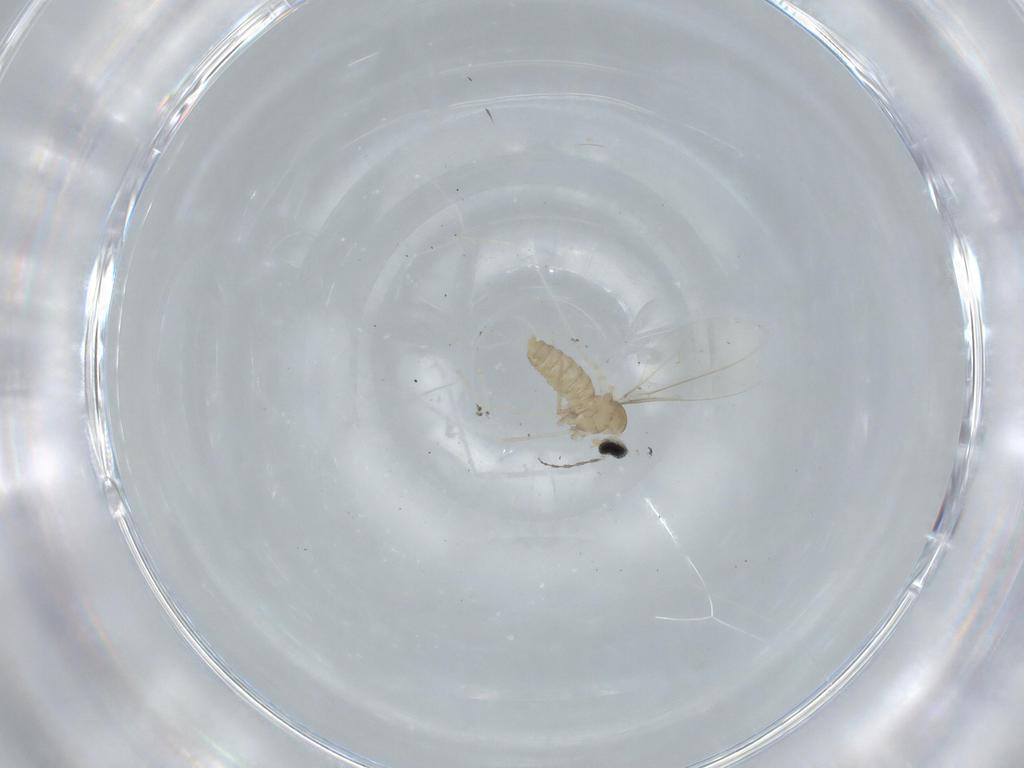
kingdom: Animalia
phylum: Arthropoda
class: Insecta
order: Diptera
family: Cecidomyiidae
